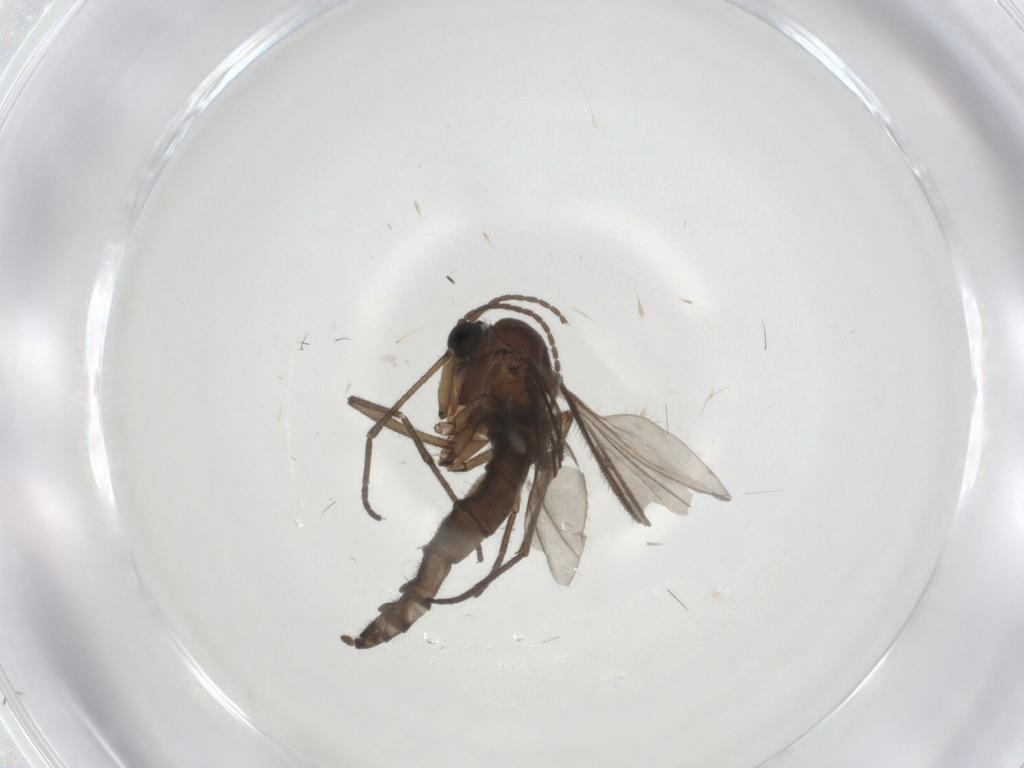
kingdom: Animalia
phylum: Arthropoda
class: Insecta
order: Diptera
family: Sciaridae
